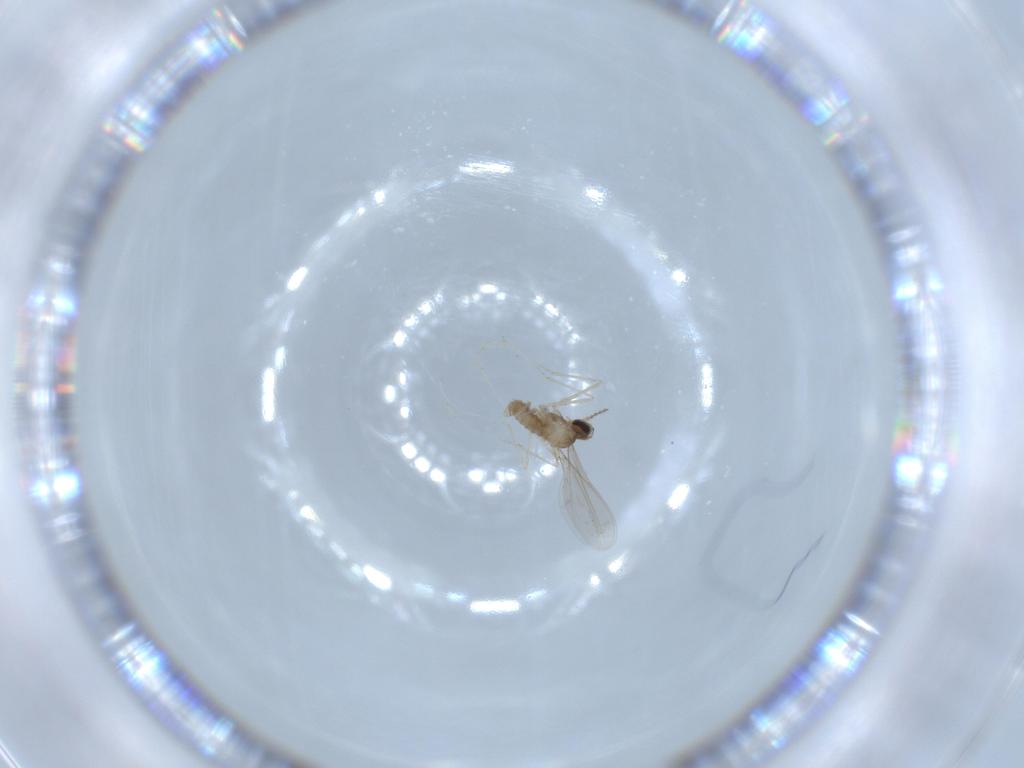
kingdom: Animalia
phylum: Arthropoda
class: Insecta
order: Diptera
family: Cecidomyiidae
